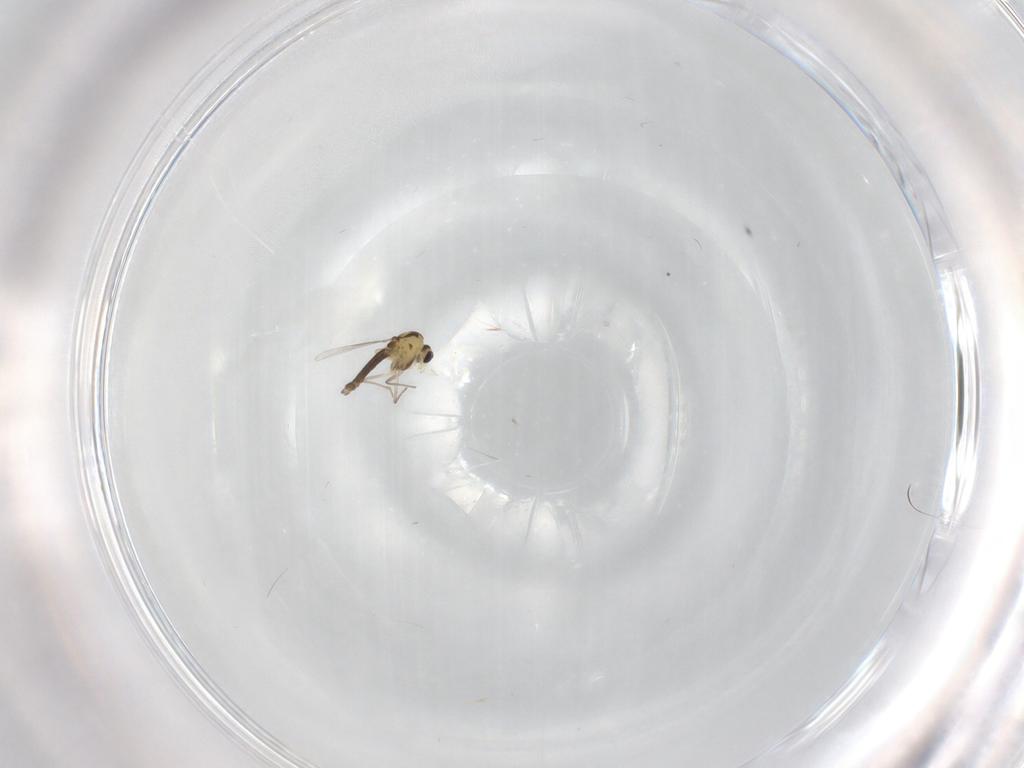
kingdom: Animalia
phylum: Arthropoda
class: Insecta
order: Diptera
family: Chironomidae
